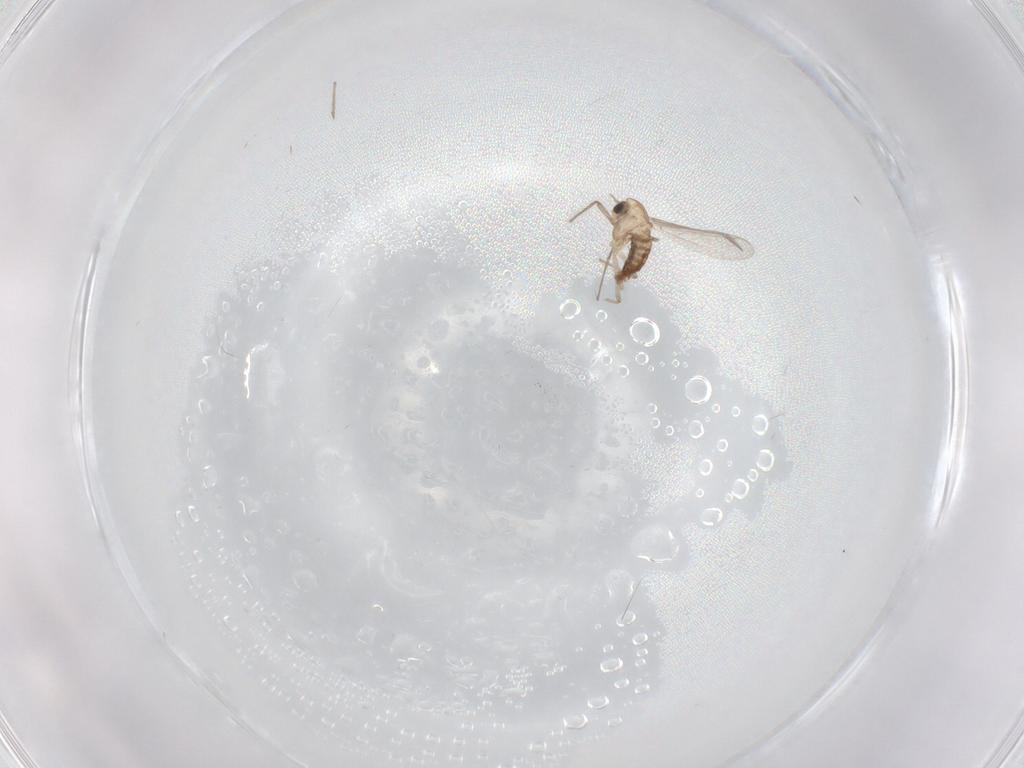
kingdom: Animalia
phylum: Arthropoda
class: Insecta
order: Diptera
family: Chironomidae
